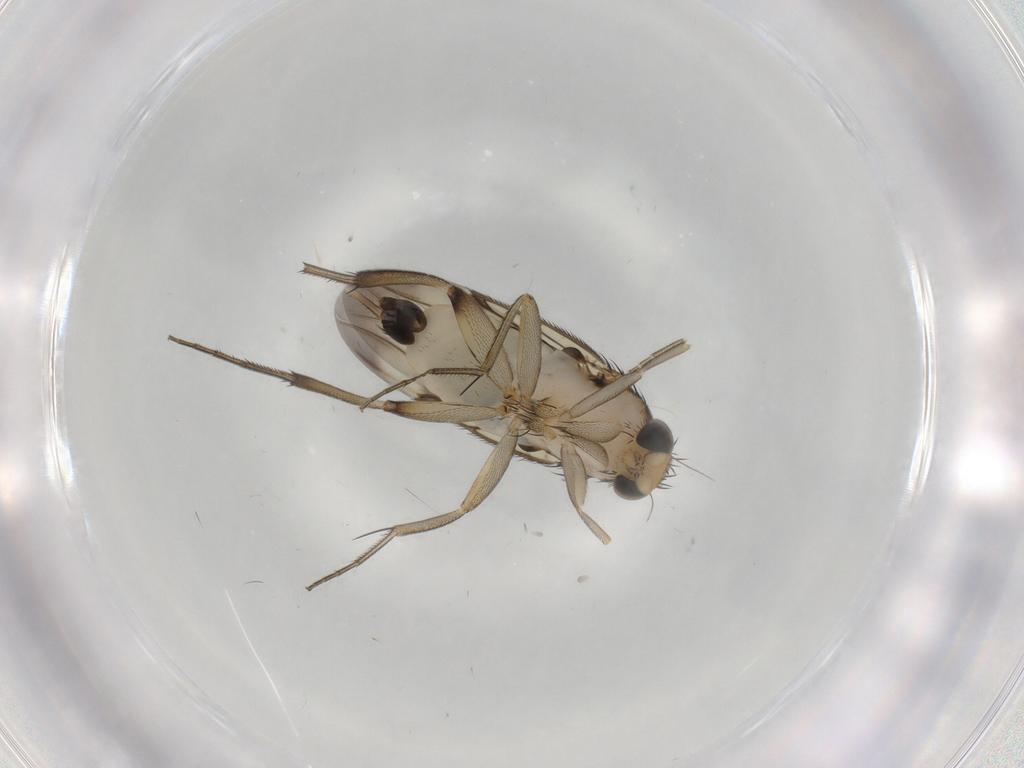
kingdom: Animalia
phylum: Arthropoda
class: Insecta
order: Diptera
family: Phoridae
